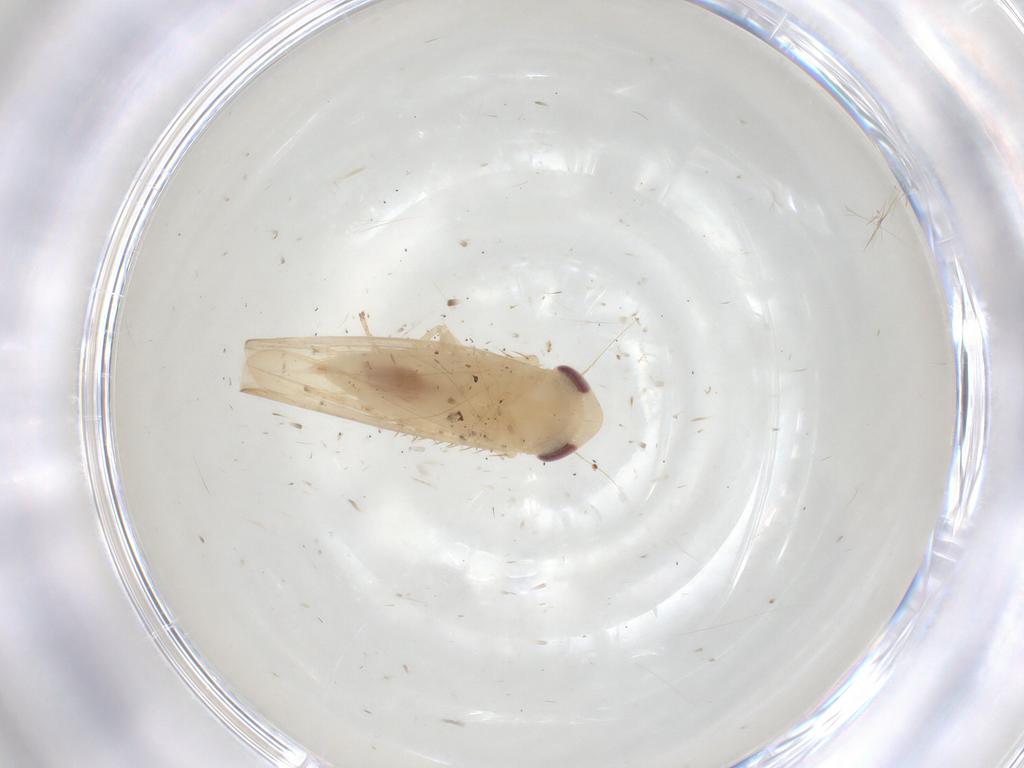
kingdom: Animalia
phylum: Arthropoda
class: Insecta
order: Hemiptera
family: Cicadellidae
